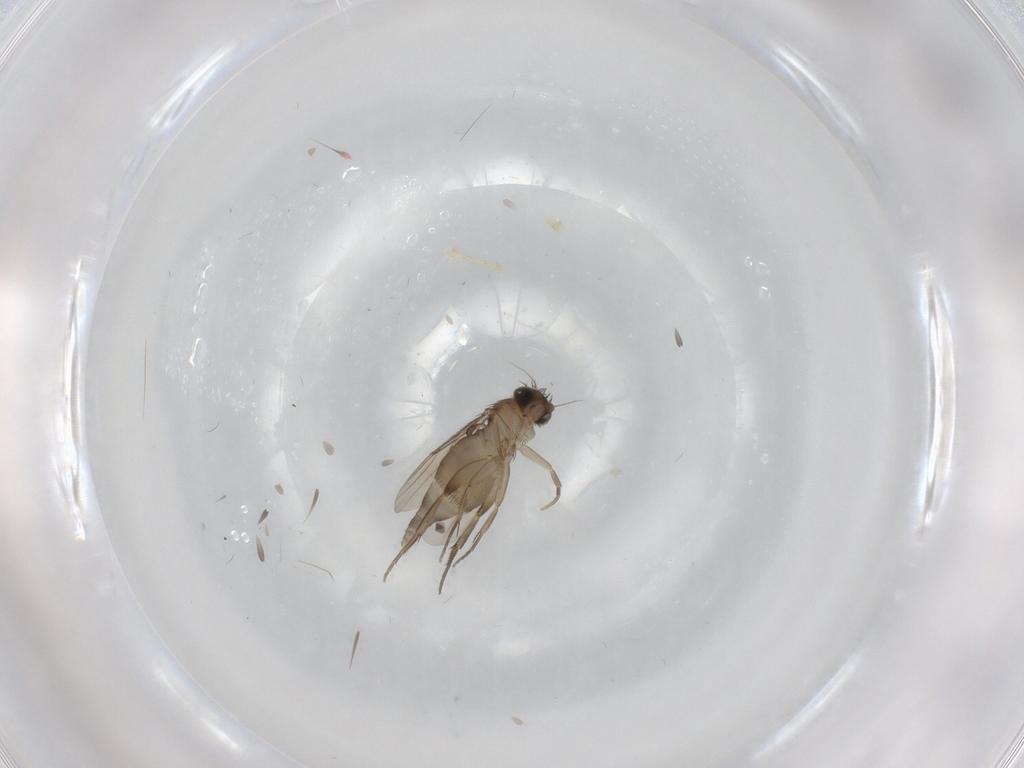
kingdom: Animalia
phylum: Arthropoda
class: Insecta
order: Diptera
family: Phoridae
